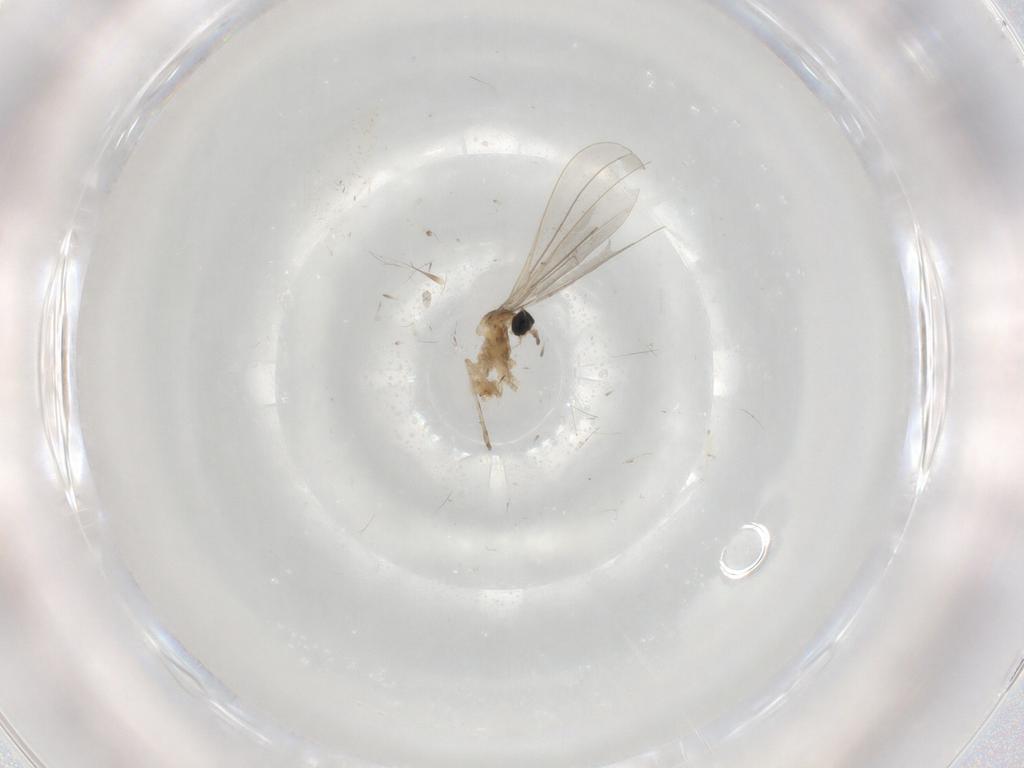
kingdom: Animalia
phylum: Arthropoda
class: Insecta
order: Diptera
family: Cecidomyiidae
